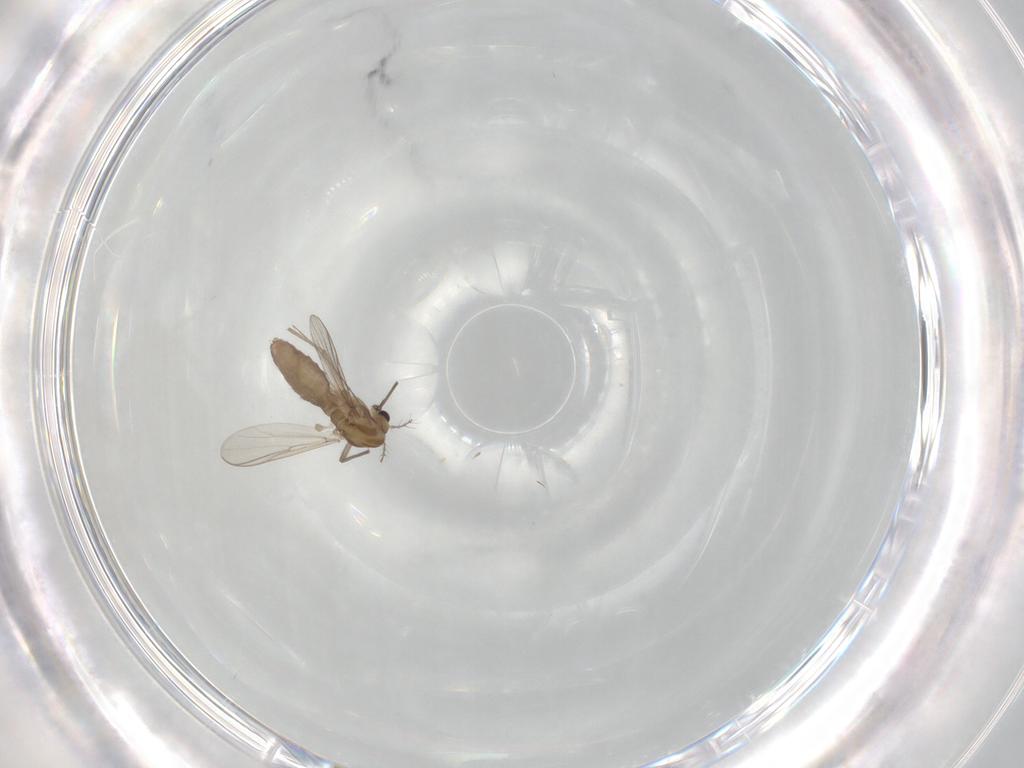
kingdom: Animalia
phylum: Arthropoda
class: Insecta
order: Diptera
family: Chironomidae
